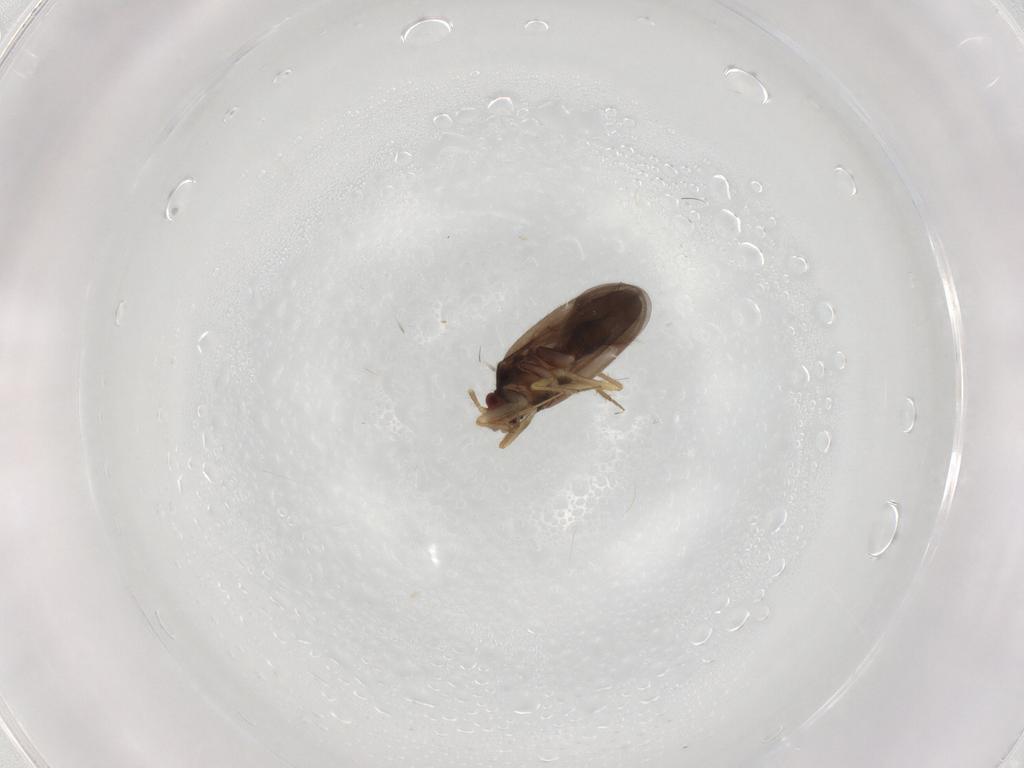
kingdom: Animalia
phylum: Arthropoda
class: Insecta
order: Hemiptera
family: Ceratocombidae
